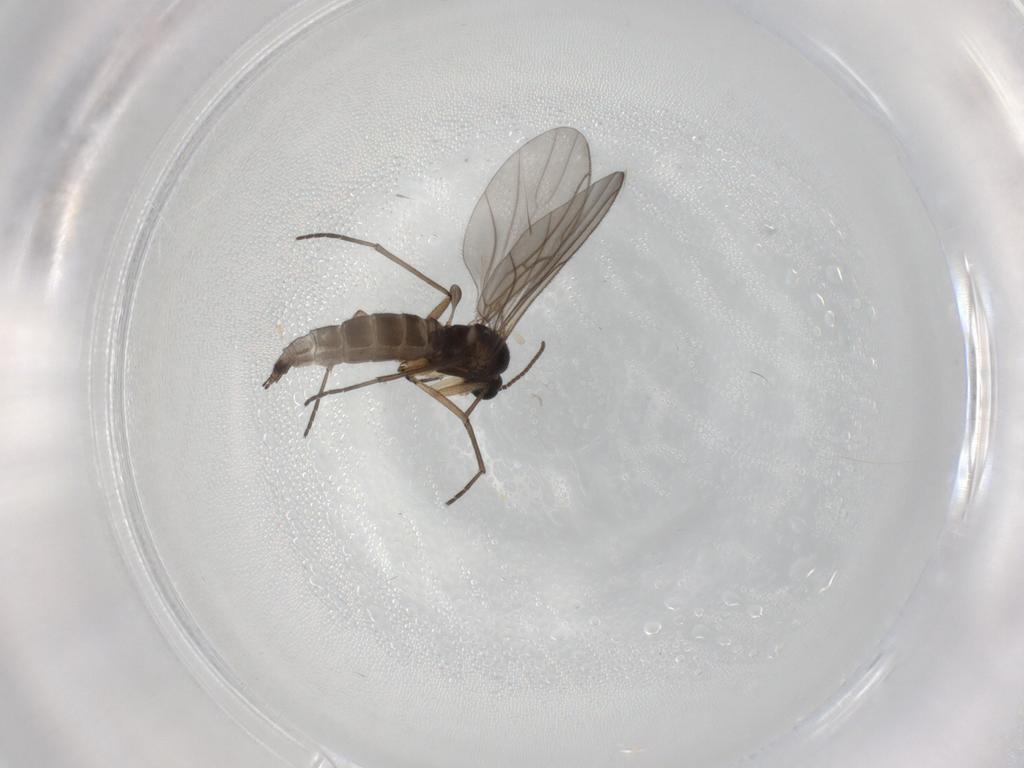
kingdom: Animalia
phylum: Arthropoda
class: Insecta
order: Diptera
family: Sciaridae
